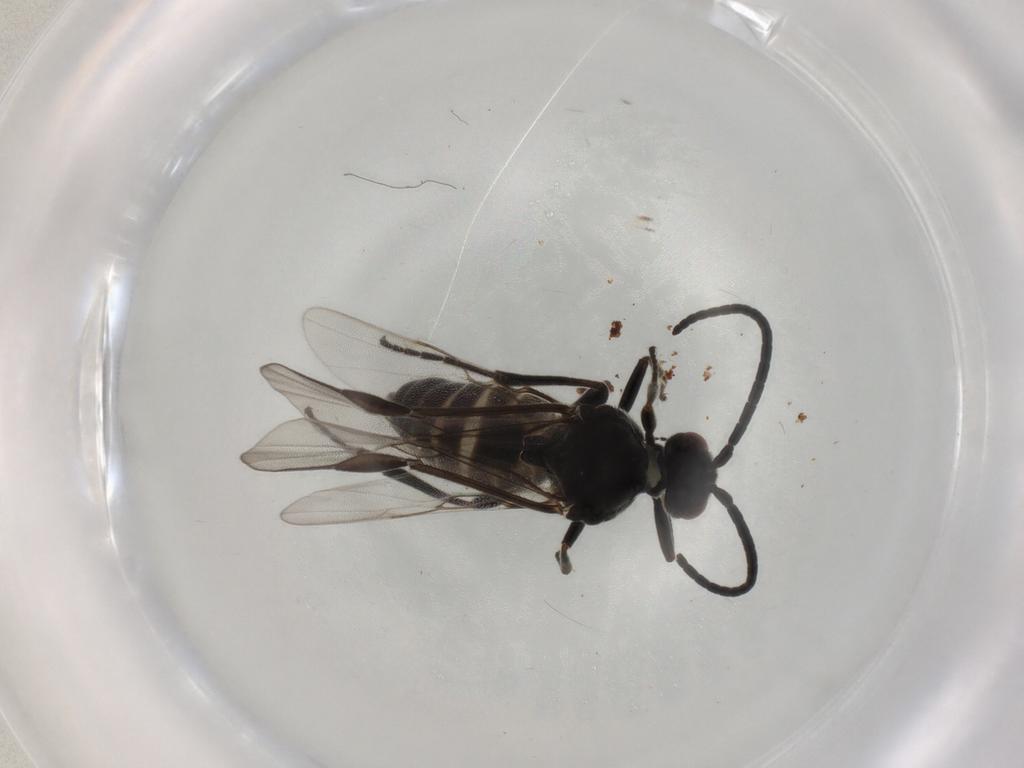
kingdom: Animalia
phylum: Arthropoda
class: Insecta
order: Hymenoptera
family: Braconidae
